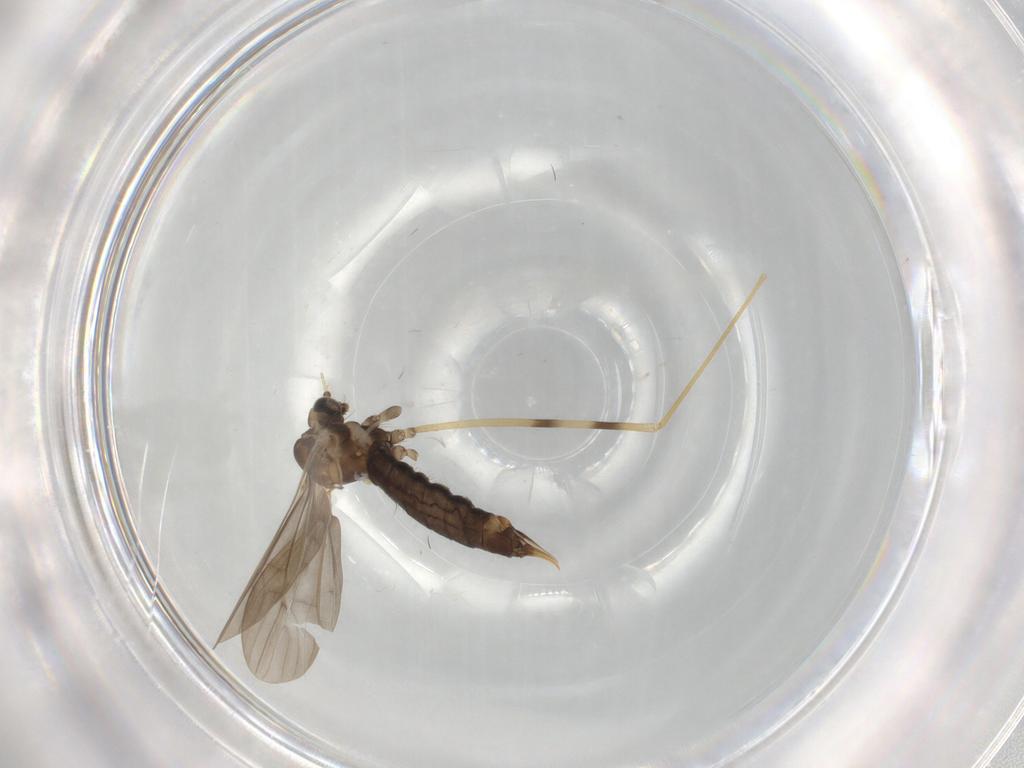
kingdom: Animalia
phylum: Arthropoda
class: Insecta
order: Diptera
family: Limoniidae
